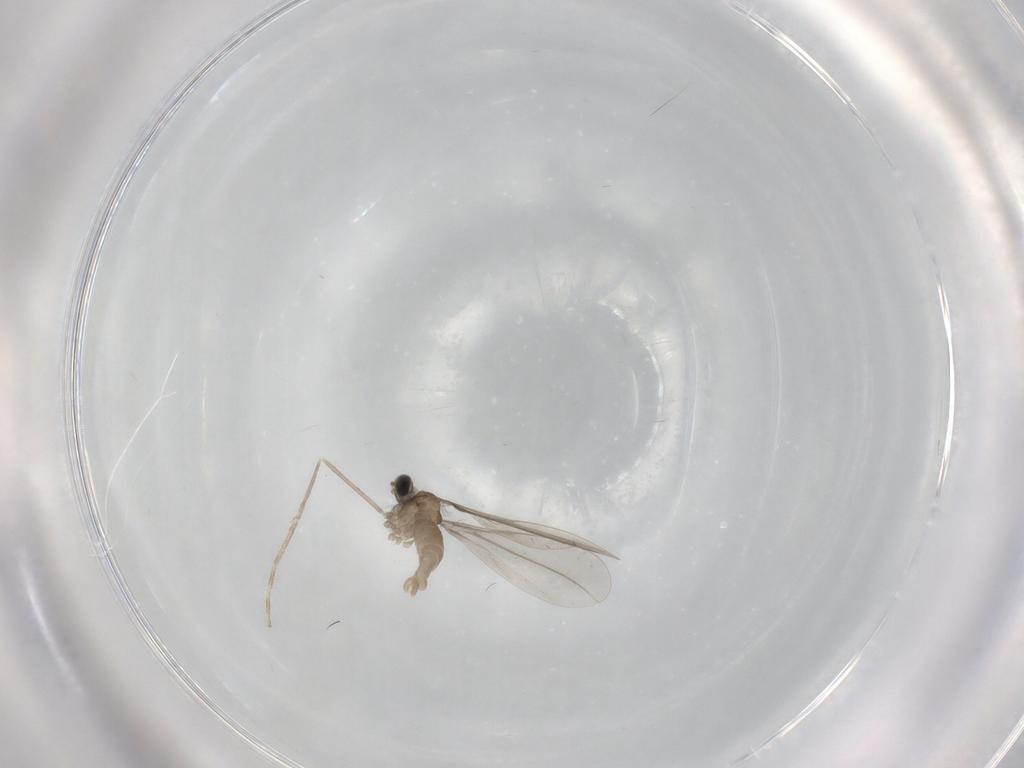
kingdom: Animalia
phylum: Arthropoda
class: Insecta
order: Diptera
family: Cecidomyiidae
